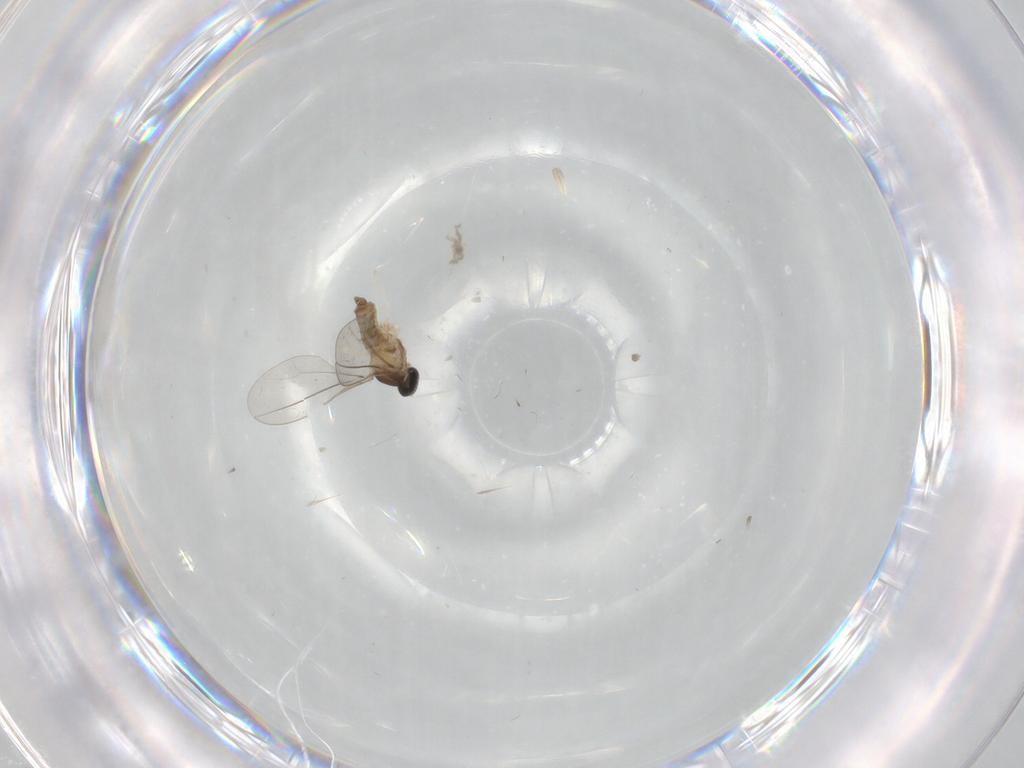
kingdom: Animalia
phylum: Arthropoda
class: Insecta
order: Diptera
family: Cecidomyiidae
